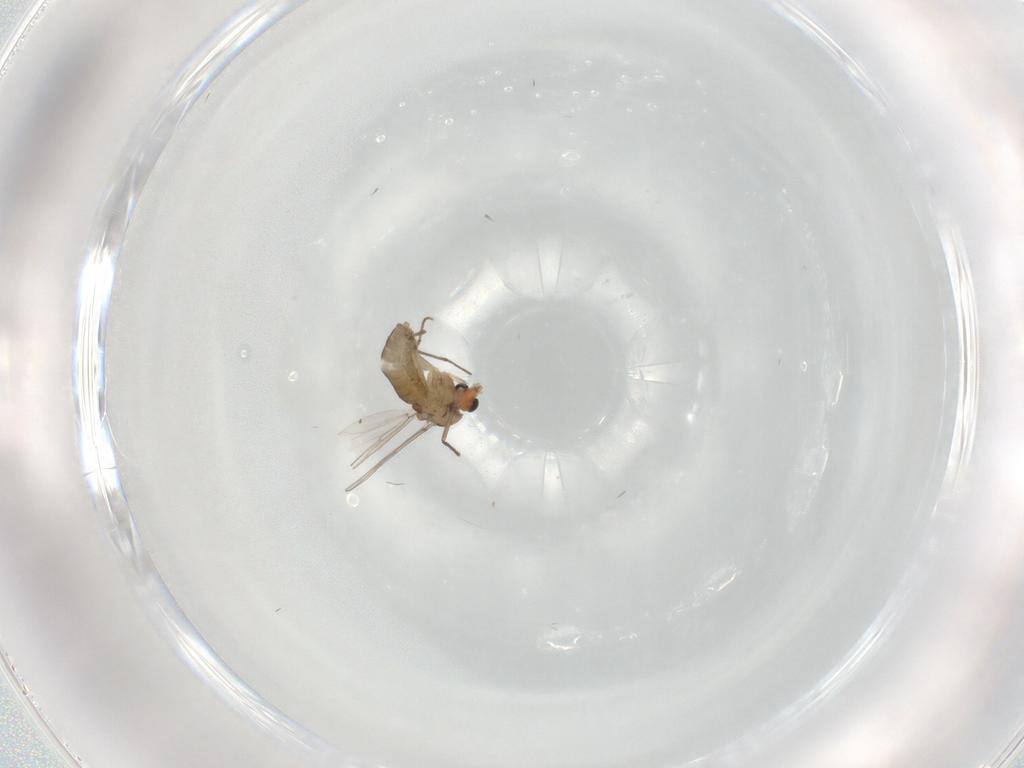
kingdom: Animalia
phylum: Arthropoda
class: Insecta
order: Diptera
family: Chironomidae
